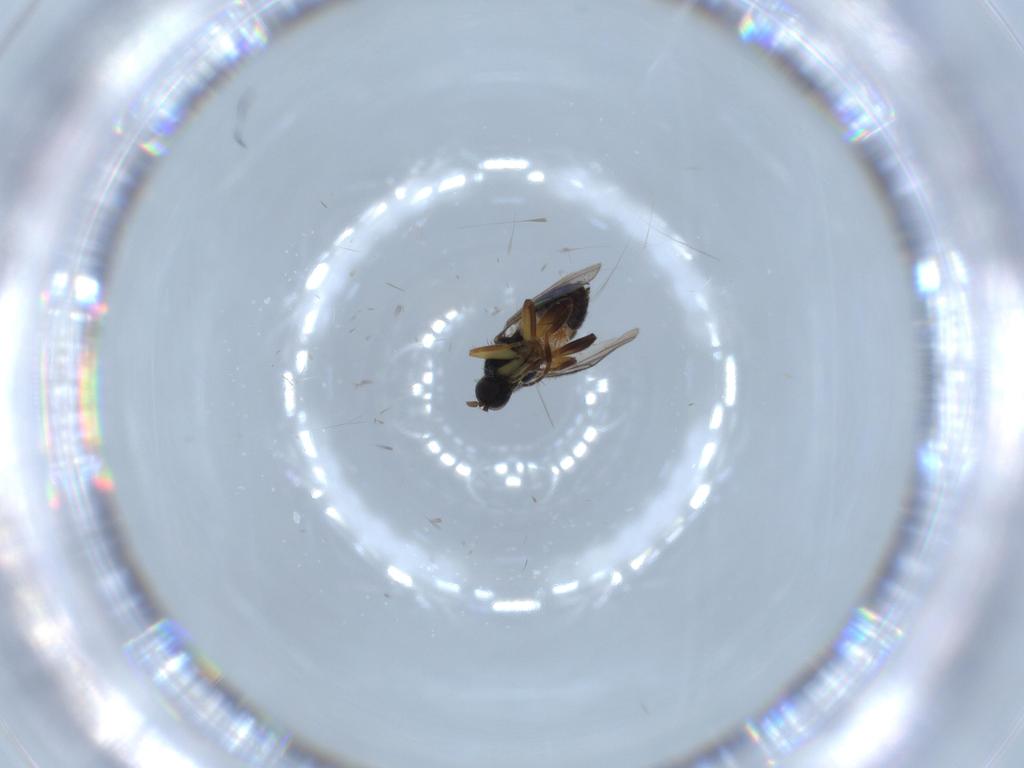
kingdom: Animalia
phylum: Arthropoda
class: Insecta
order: Diptera
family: Hybotidae
